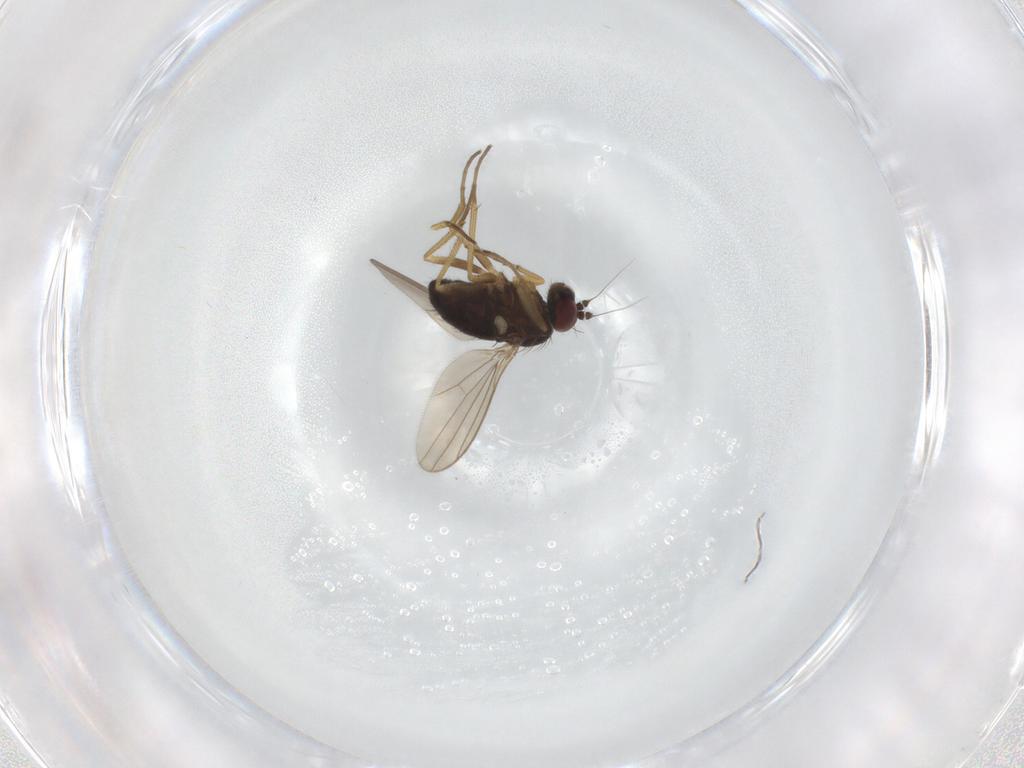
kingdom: Animalia
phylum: Arthropoda
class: Insecta
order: Diptera
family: Dolichopodidae
